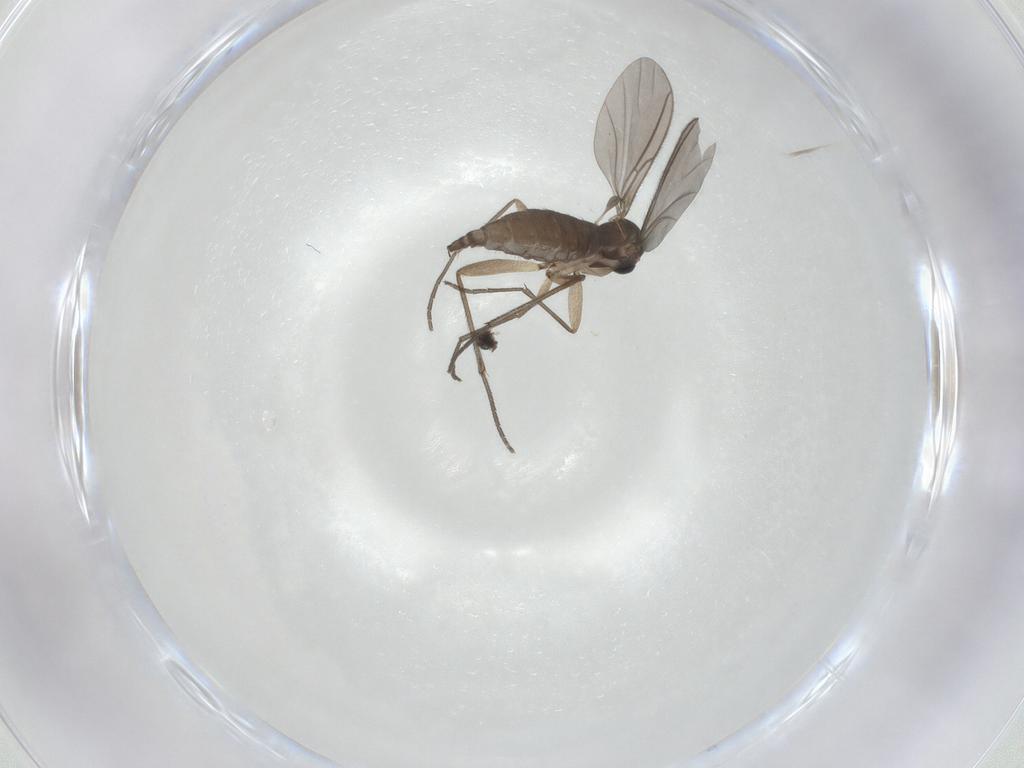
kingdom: Animalia
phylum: Arthropoda
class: Insecta
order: Diptera
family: Sciaridae
